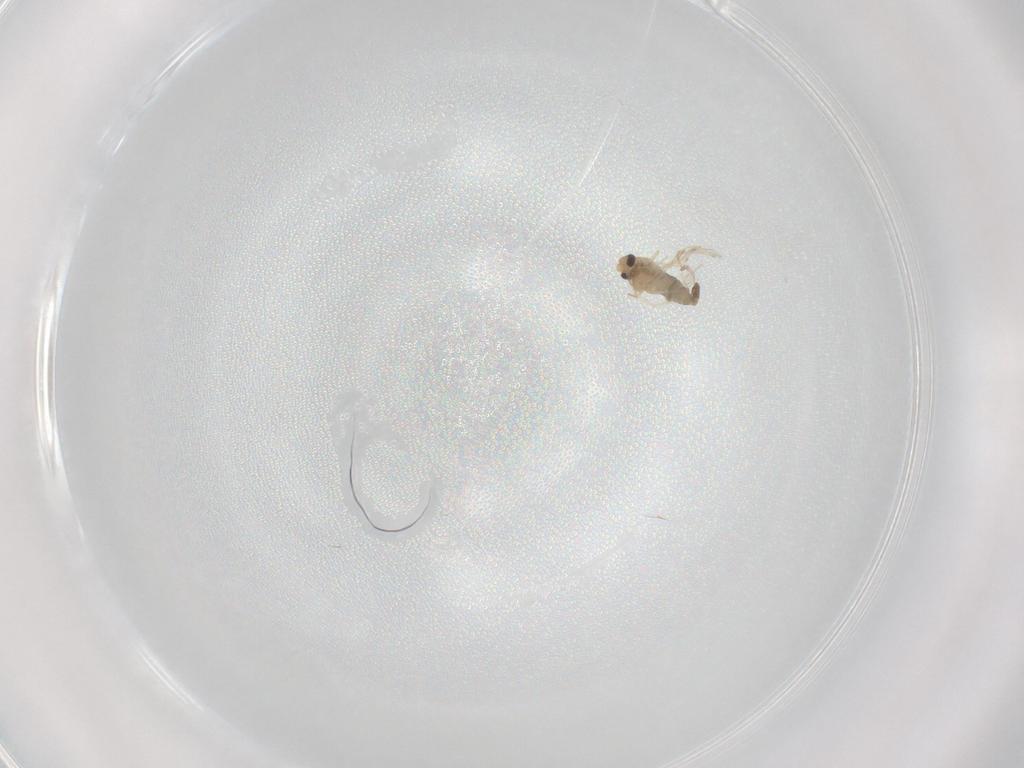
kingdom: Animalia
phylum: Arthropoda
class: Insecta
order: Diptera
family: Chironomidae
